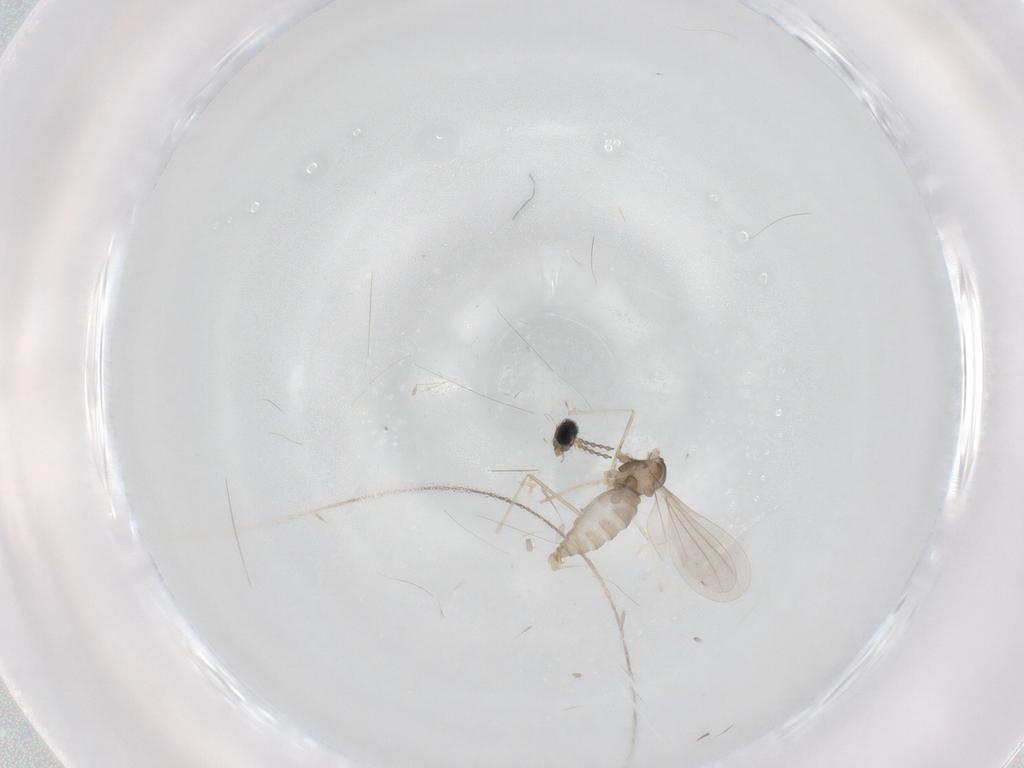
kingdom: Animalia
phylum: Arthropoda
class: Insecta
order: Diptera
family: Cecidomyiidae
